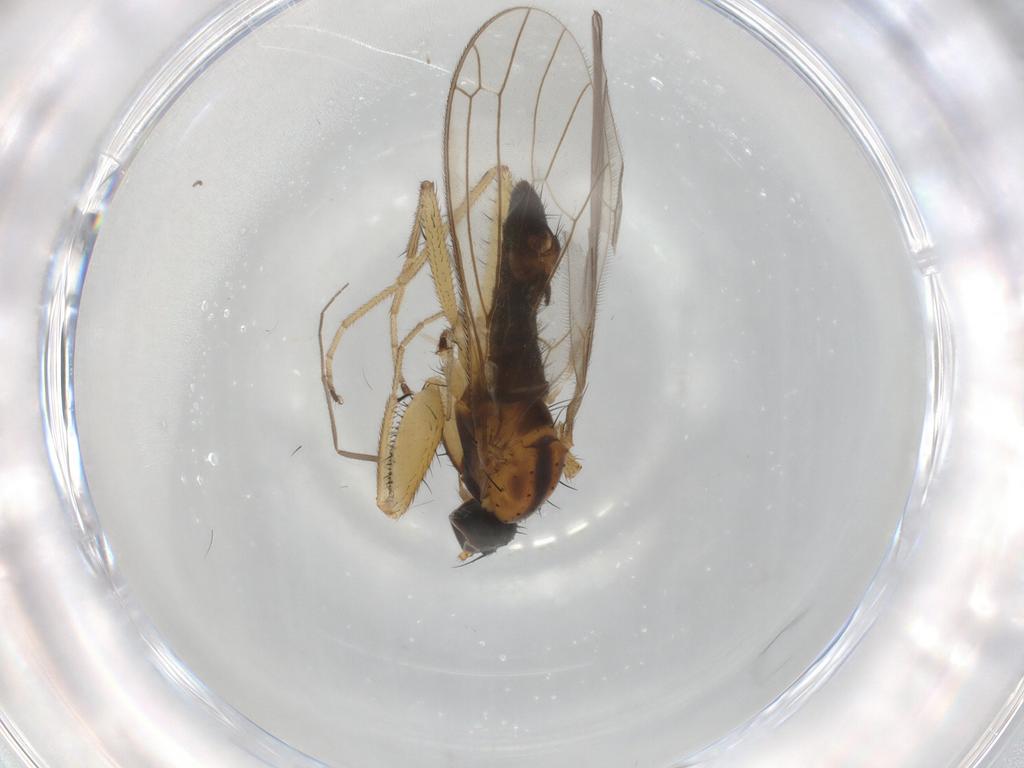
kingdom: Animalia
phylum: Arthropoda
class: Insecta
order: Diptera
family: Chironomidae
